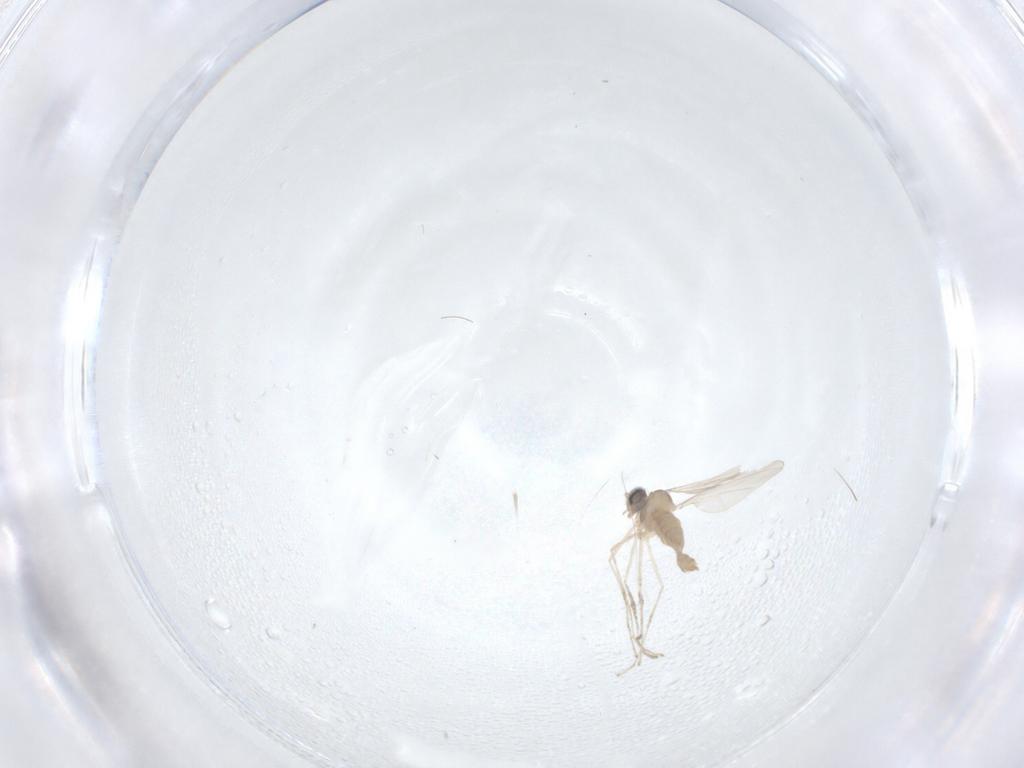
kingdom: Animalia
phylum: Arthropoda
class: Insecta
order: Diptera
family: Cecidomyiidae
